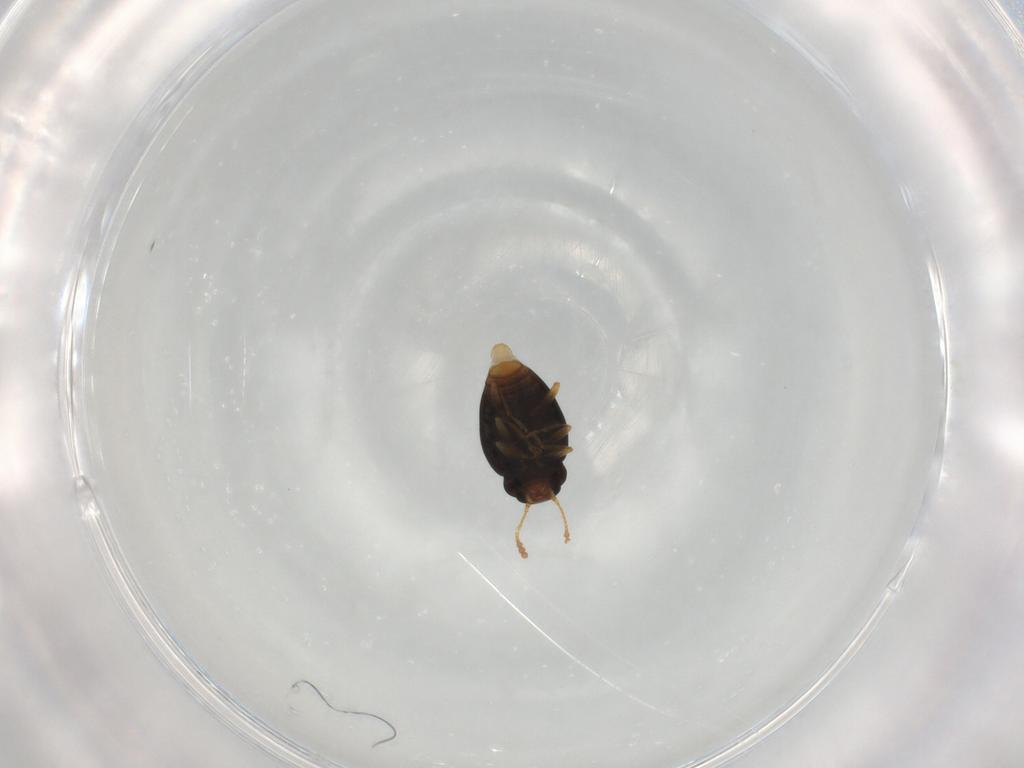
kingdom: Animalia
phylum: Arthropoda
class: Insecta
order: Coleoptera
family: Erotylidae
